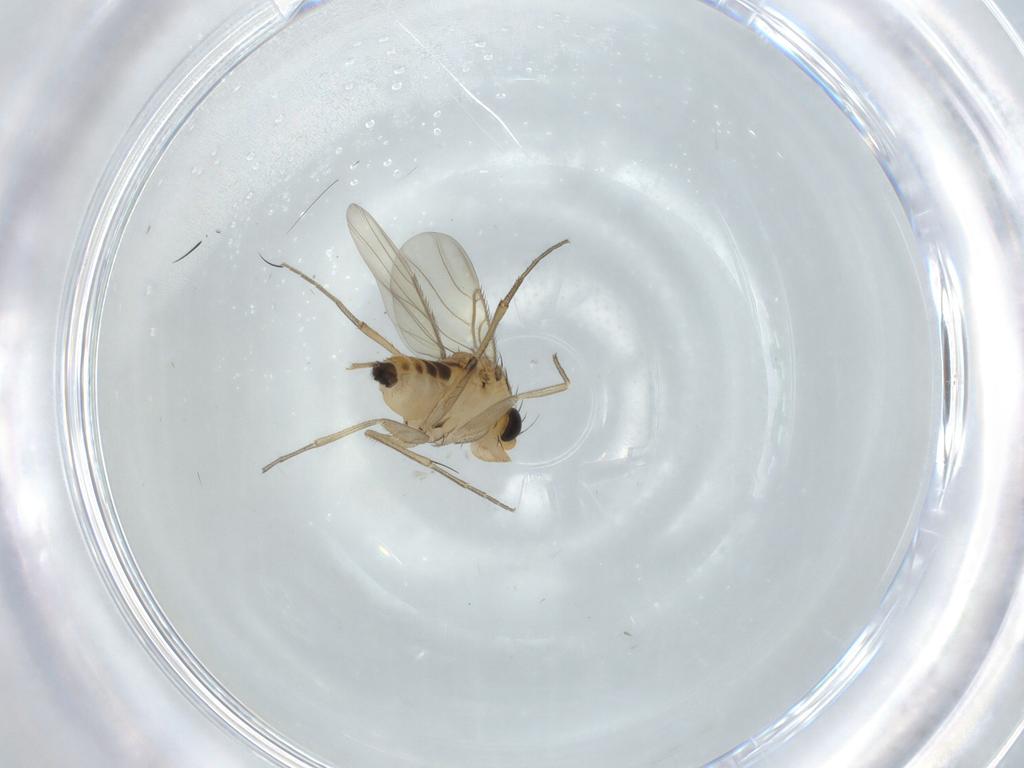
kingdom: Animalia
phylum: Arthropoda
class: Insecta
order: Diptera
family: Phoridae
